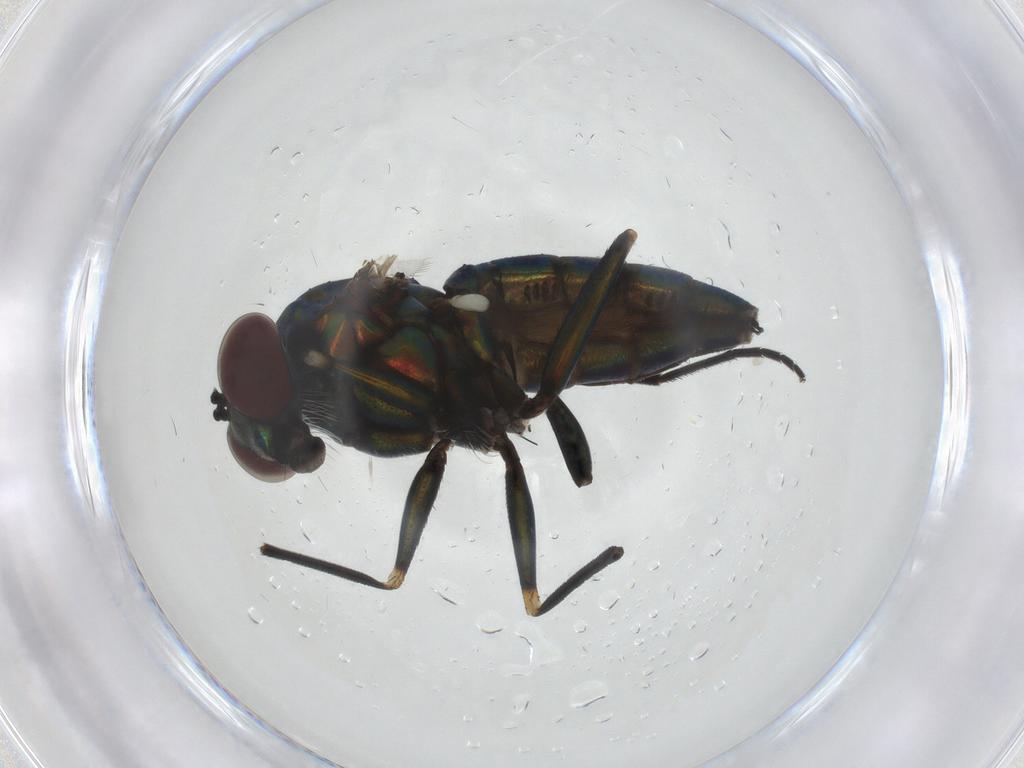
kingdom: Animalia
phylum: Arthropoda
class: Insecta
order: Diptera
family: Dolichopodidae
